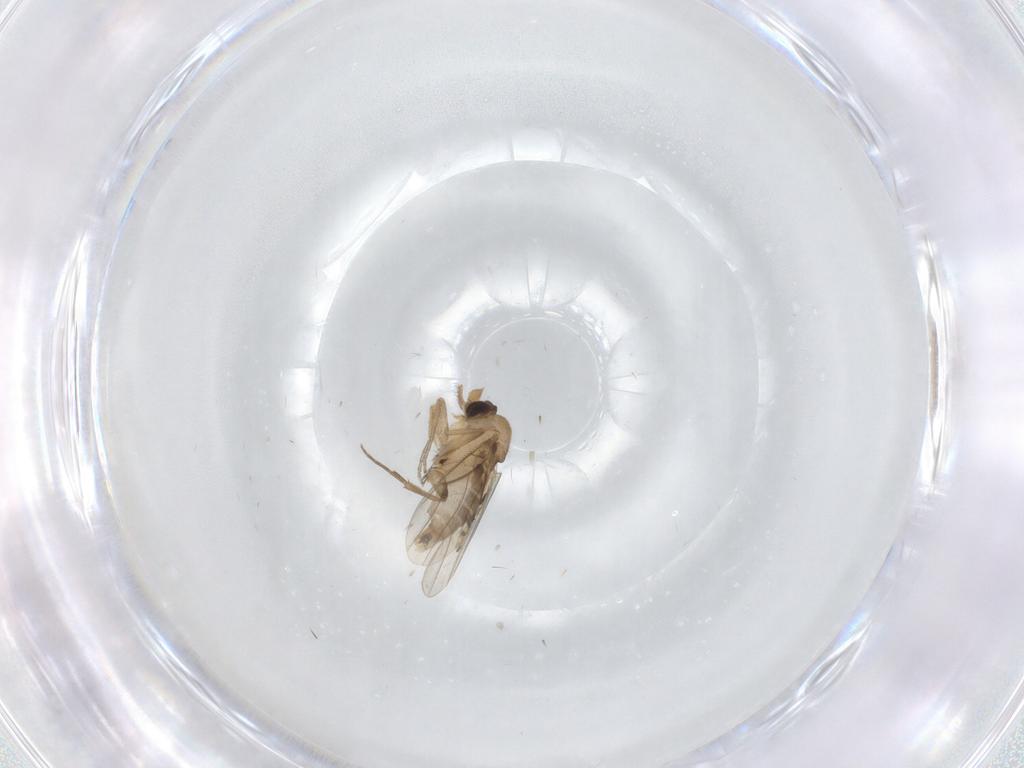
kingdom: Animalia
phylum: Arthropoda
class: Insecta
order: Diptera
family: Phoridae
